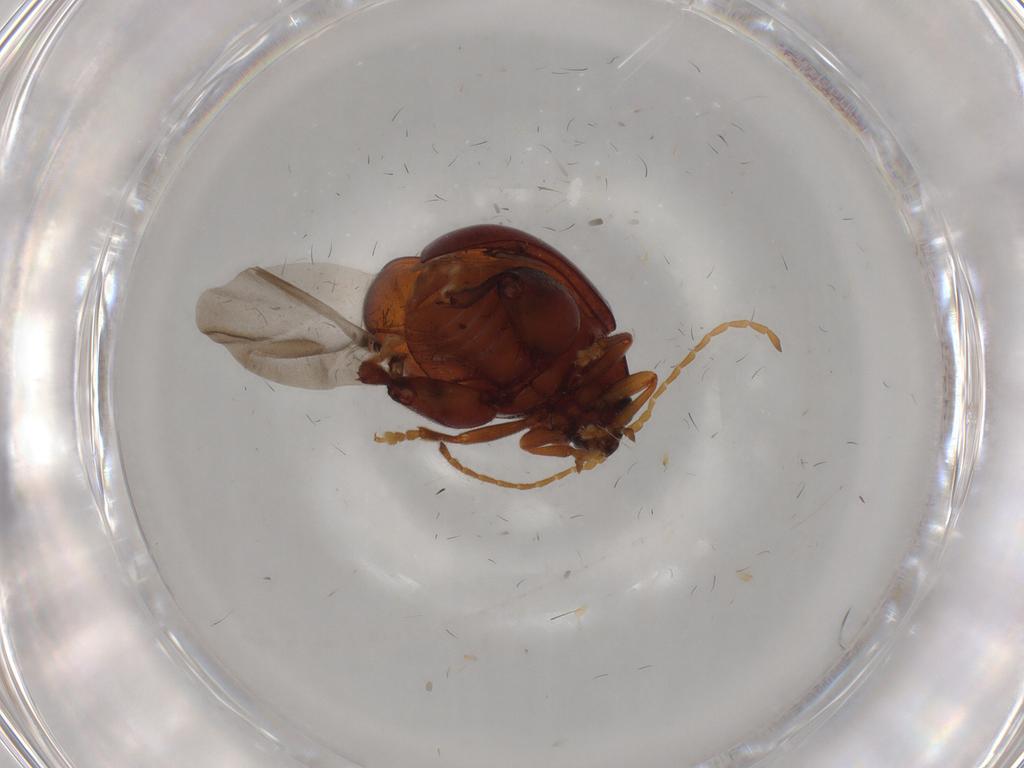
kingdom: Animalia
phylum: Arthropoda
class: Insecta
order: Coleoptera
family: Chrysomelidae
